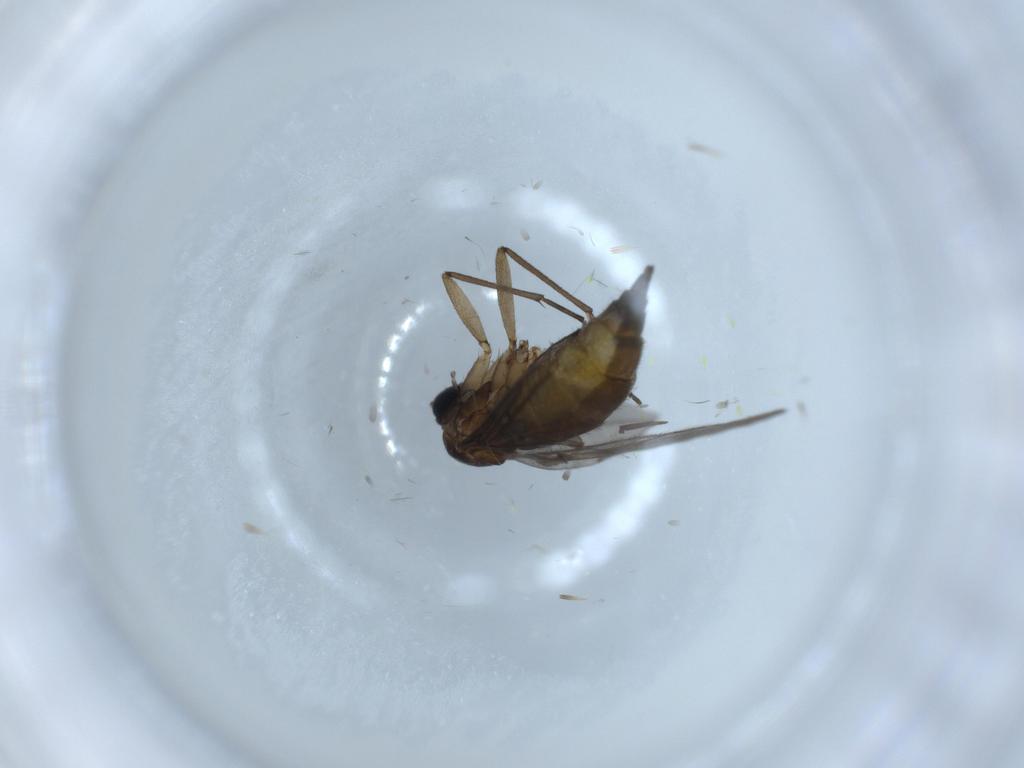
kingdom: Animalia
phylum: Arthropoda
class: Insecta
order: Diptera
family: Sciaridae
